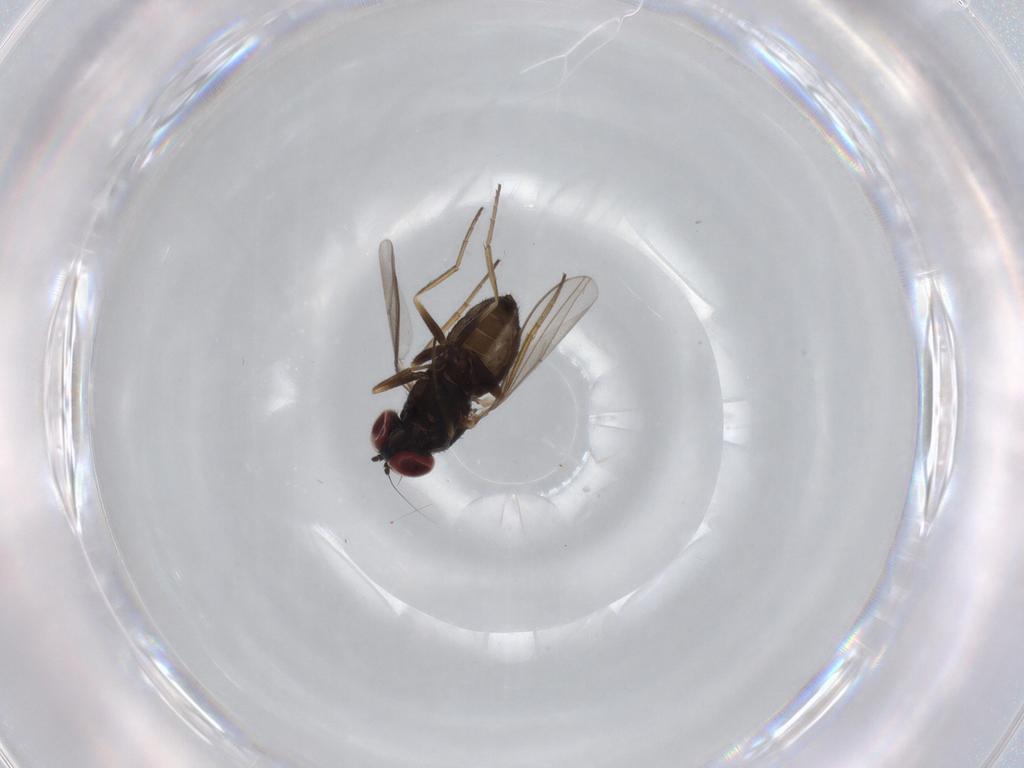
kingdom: Animalia
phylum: Arthropoda
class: Insecta
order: Diptera
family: Dolichopodidae
